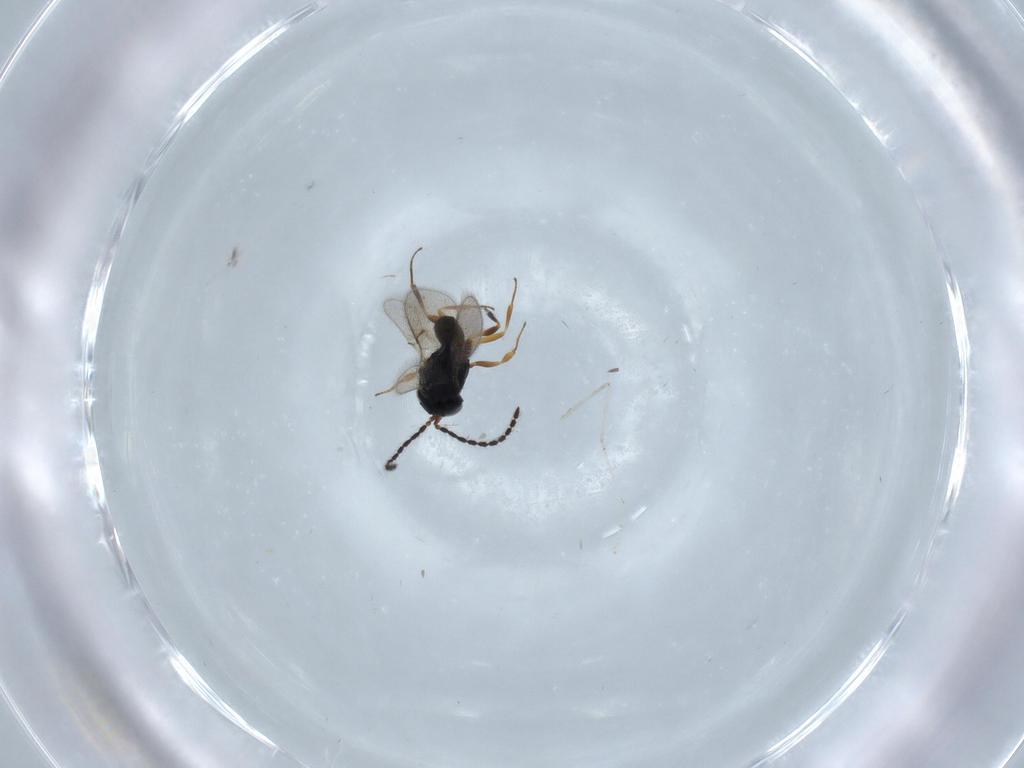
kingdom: Animalia
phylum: Arthropoda
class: Insecta
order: Hymenoptera
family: Scelionidae
